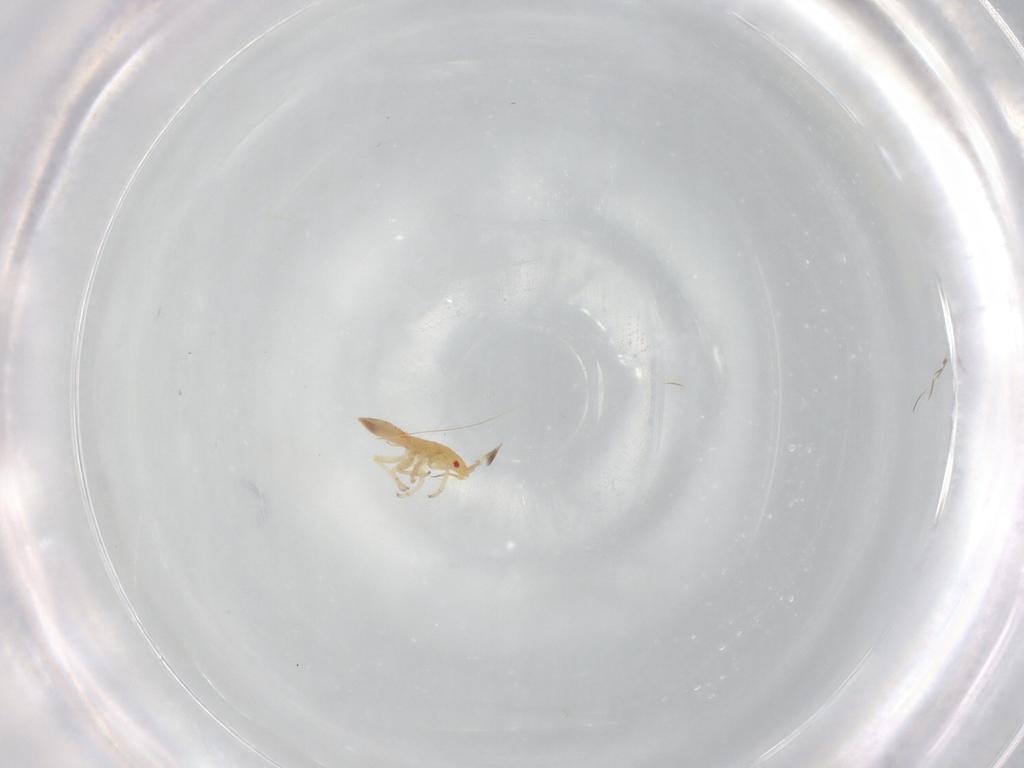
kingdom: Animalia
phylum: Arthropoda
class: Insecta
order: Hemiptera
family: Anthocoridae
